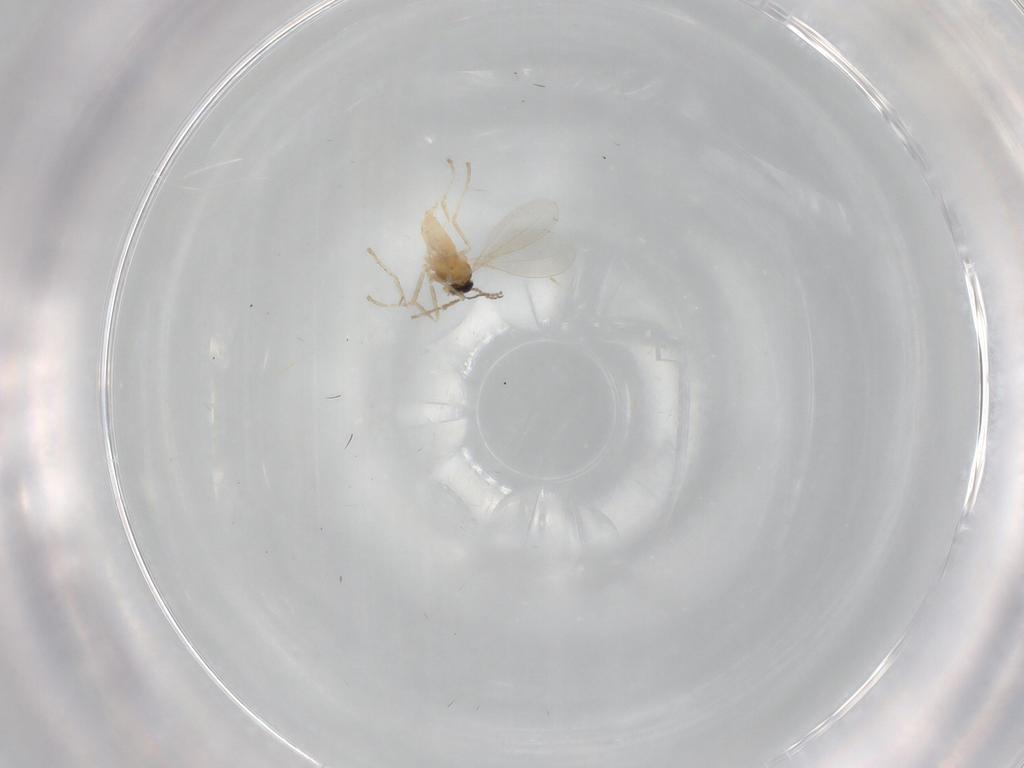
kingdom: Animalia
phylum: Arthropoda
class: Insecta
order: Diptera
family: Cecidomyiidae
